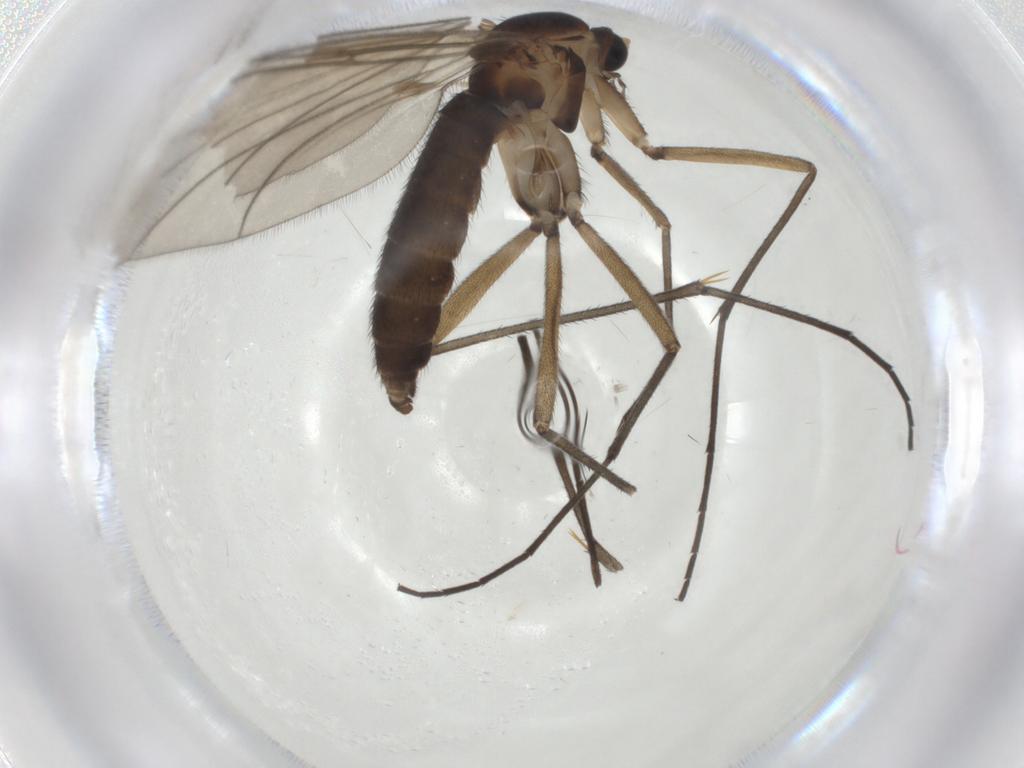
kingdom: Animalia
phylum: Arthropoda
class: Insecta
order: Diptera
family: Sciaridae
